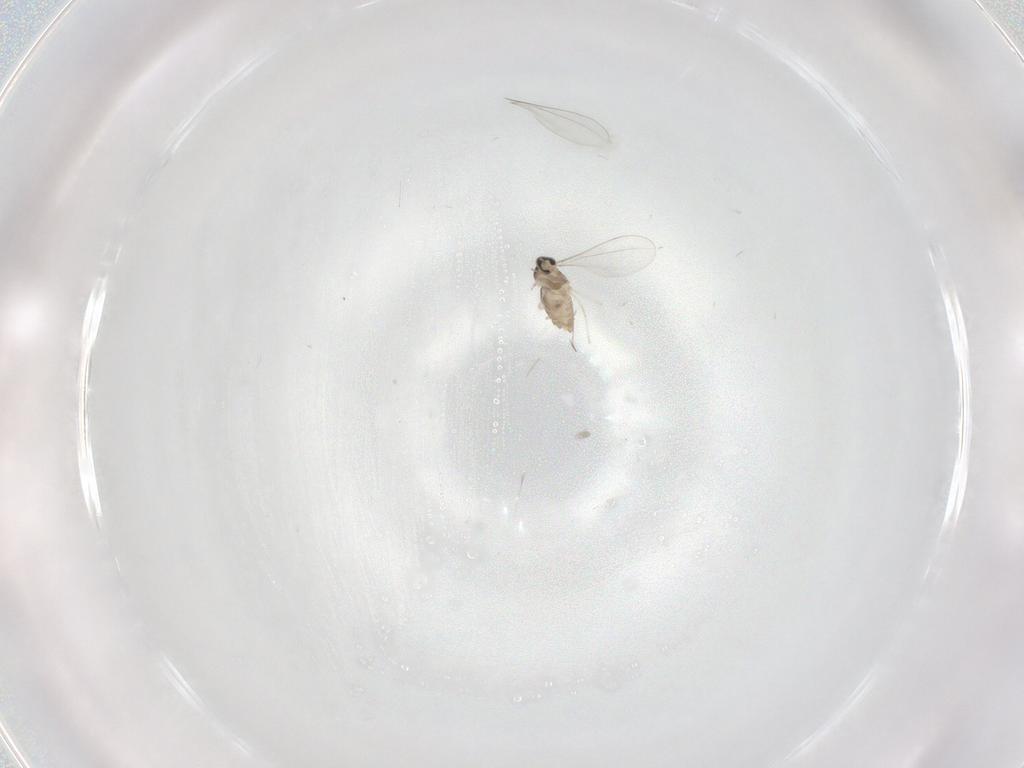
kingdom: Animalia
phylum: Arthropoda
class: Insecta
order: Diptera
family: Cecidomyiidae
